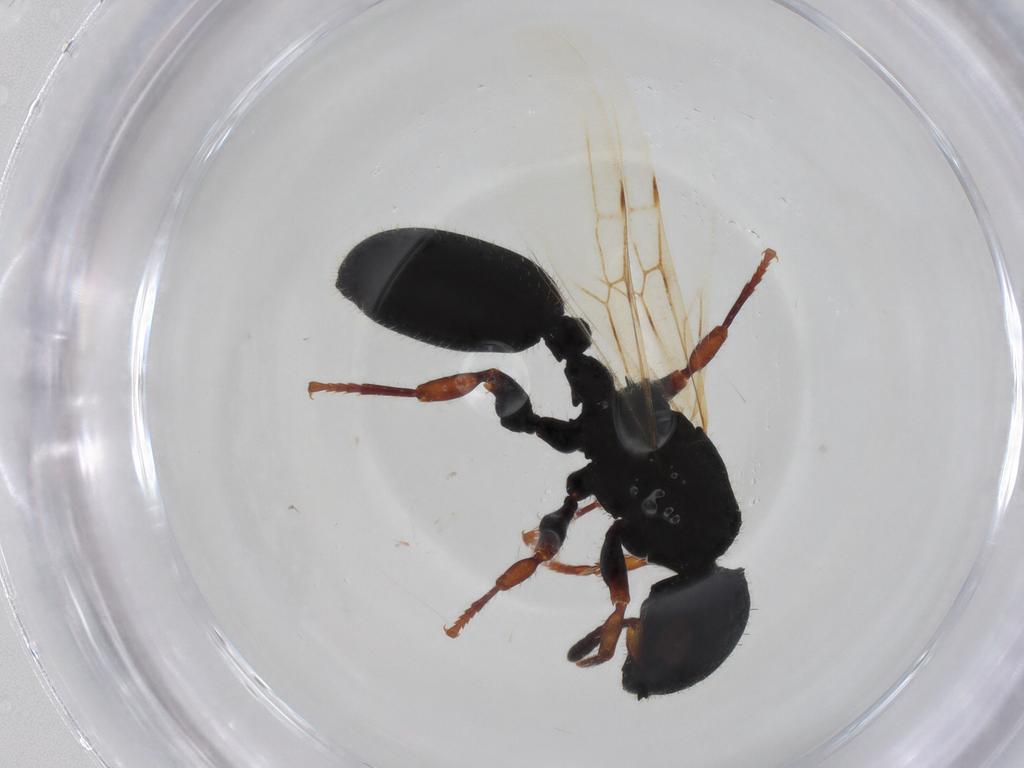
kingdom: Animalia
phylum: Arthropoda
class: Insecta
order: Hymenoptera
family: Formicidae
